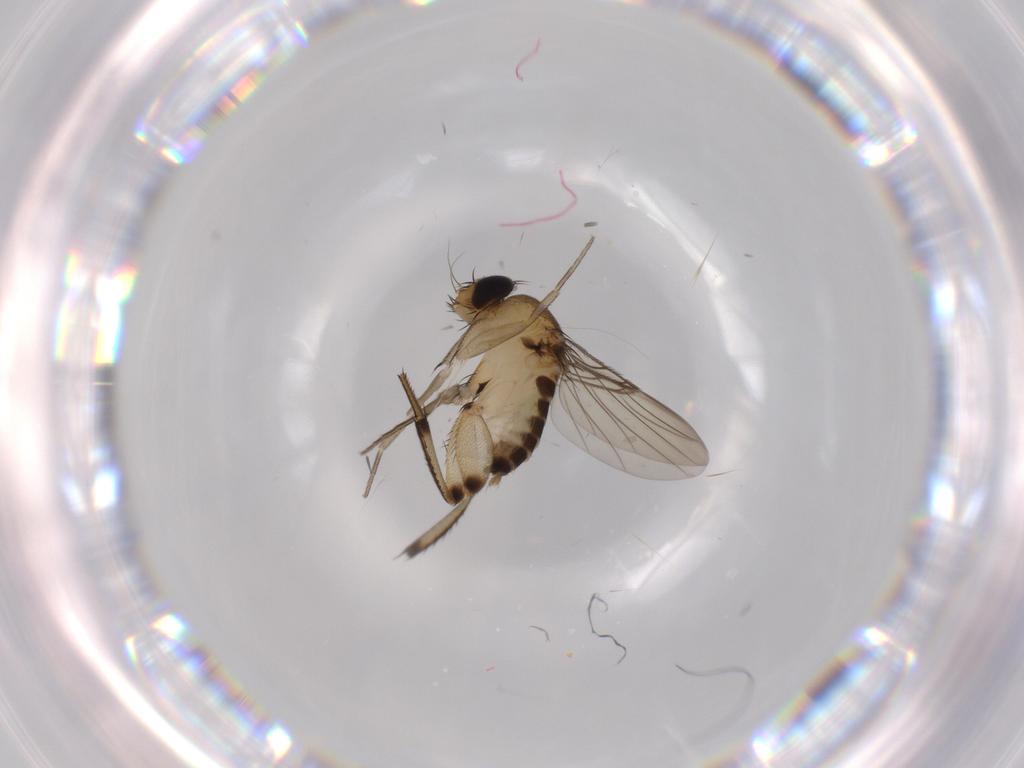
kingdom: Animalia
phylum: Arthropoda
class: Insecta
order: Diptera
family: Phoridae
